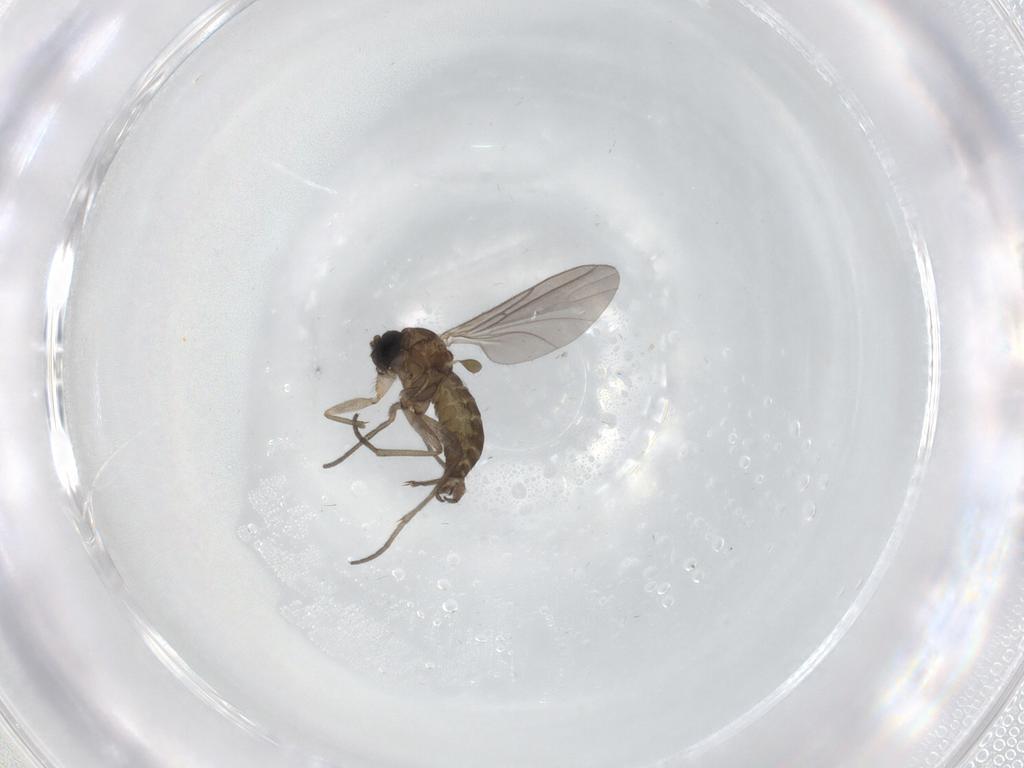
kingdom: Animalia
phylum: Arthropoda
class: Insecta
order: Diptera
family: Sciaridae
